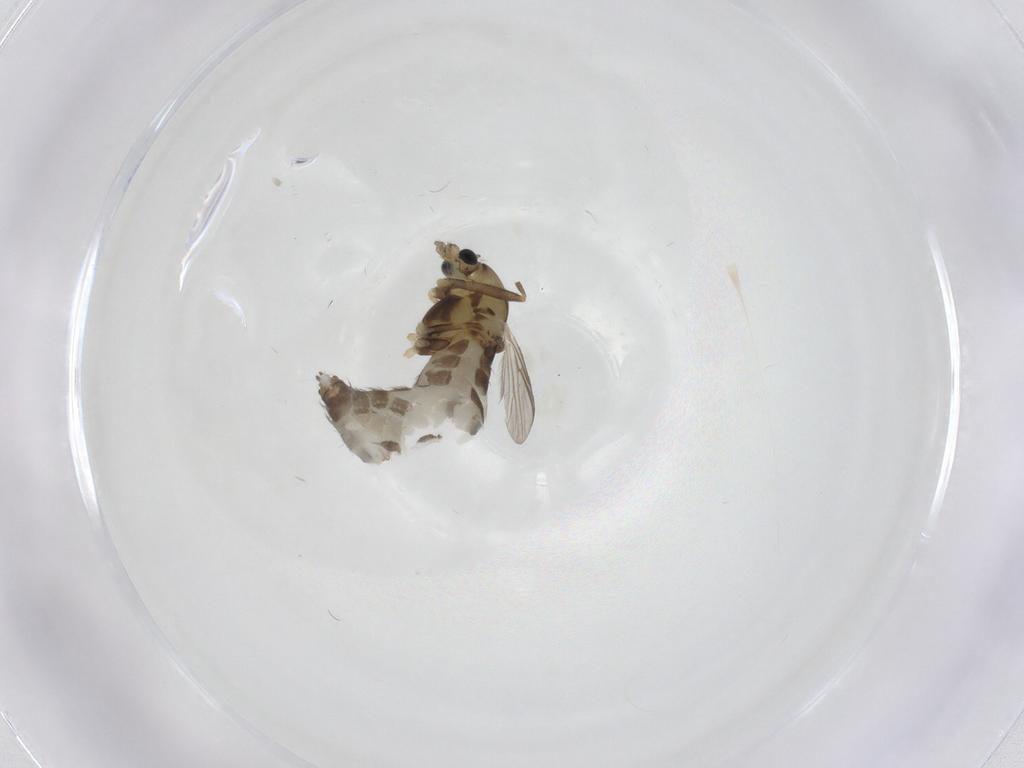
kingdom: Animalia
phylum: Arthropoda
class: Insecta
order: Diptera
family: Chironomidae
